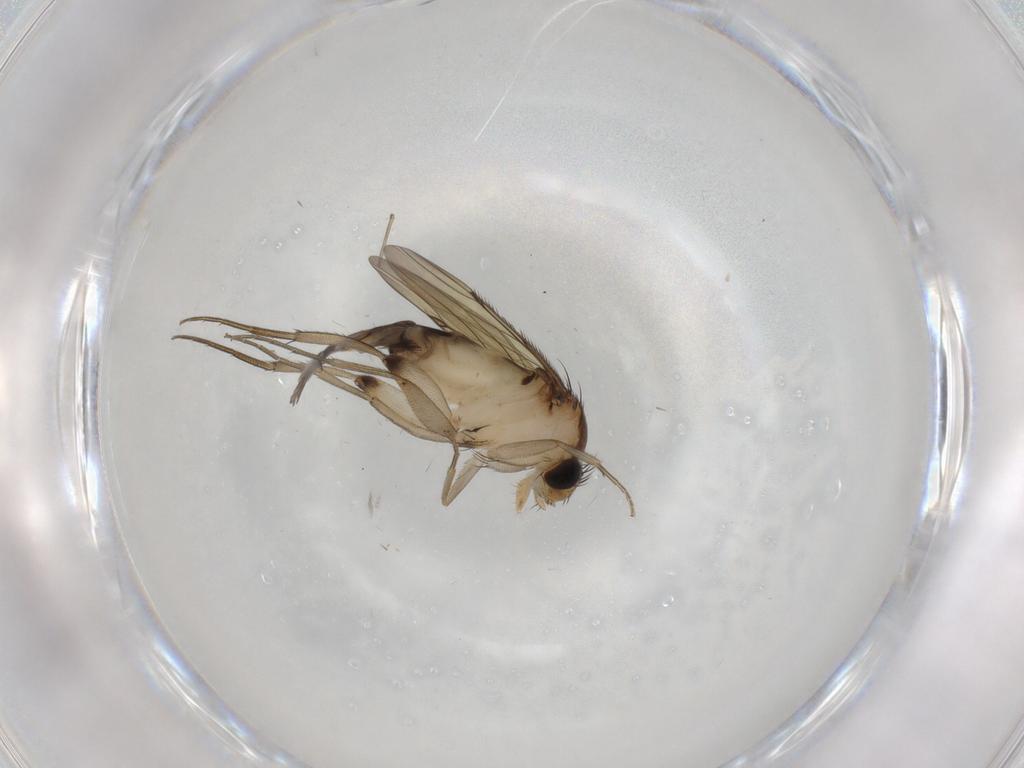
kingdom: Animalia
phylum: Arthropoda
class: Insecta
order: Diptera
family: Phoridae
